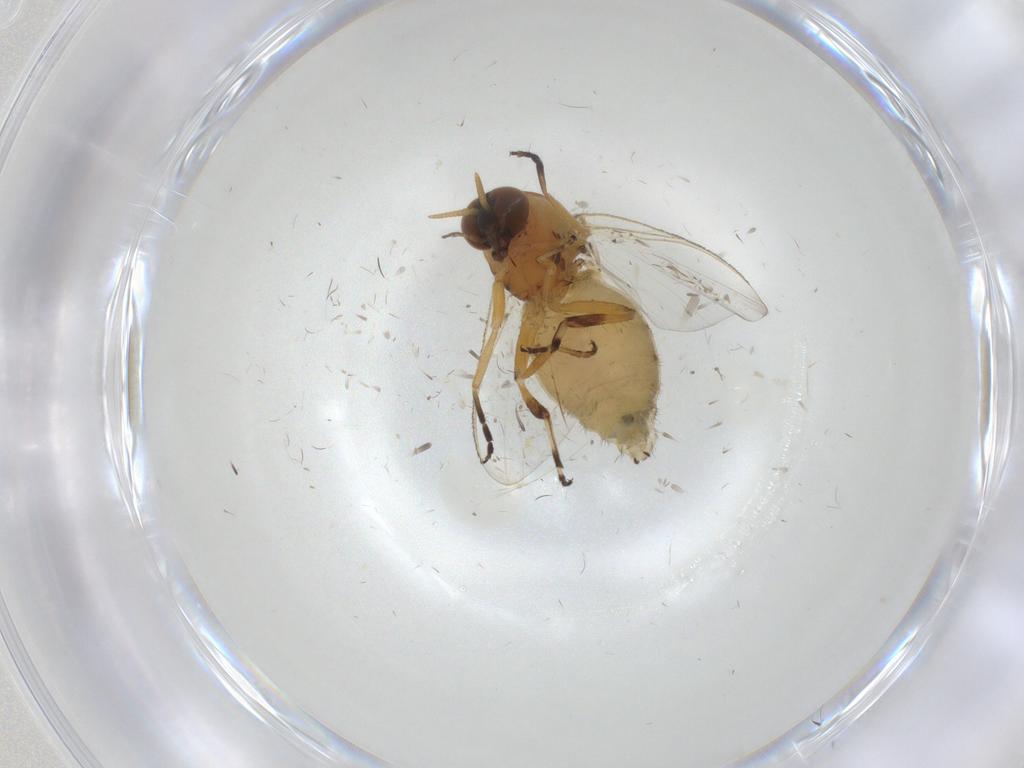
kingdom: Animalia
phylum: Arthropoda
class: Insecta
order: Diptera
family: Simuliidae
